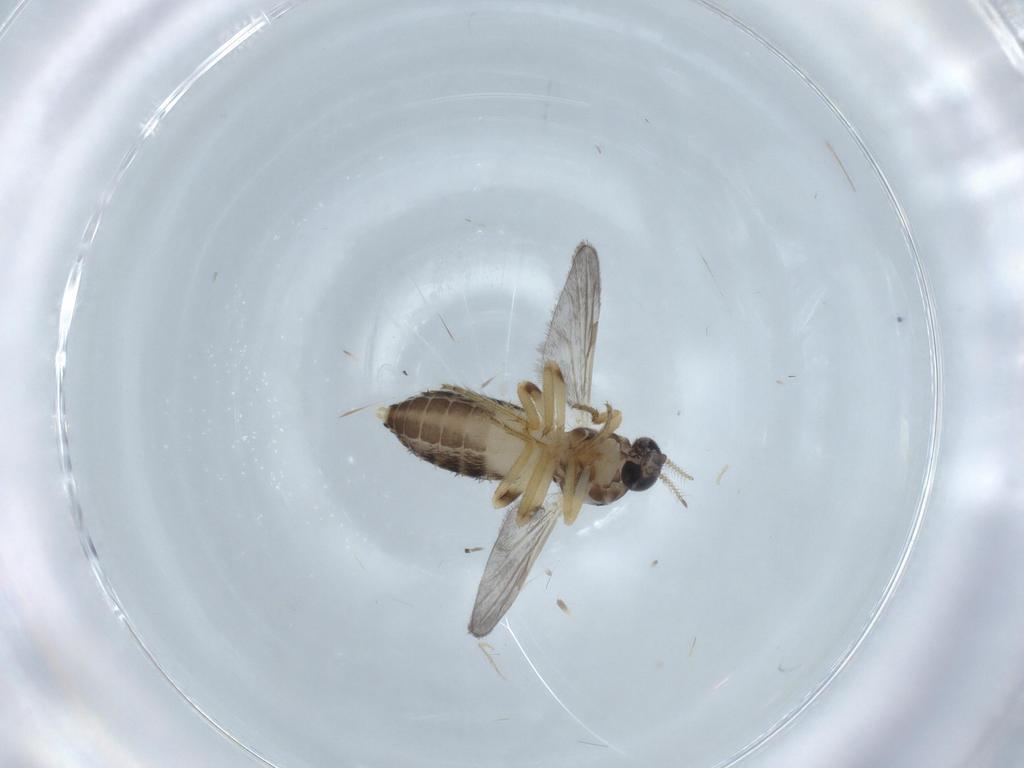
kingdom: Animalia
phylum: Arthropoda
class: Insecta
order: Diptera
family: Ceratopogonidae
